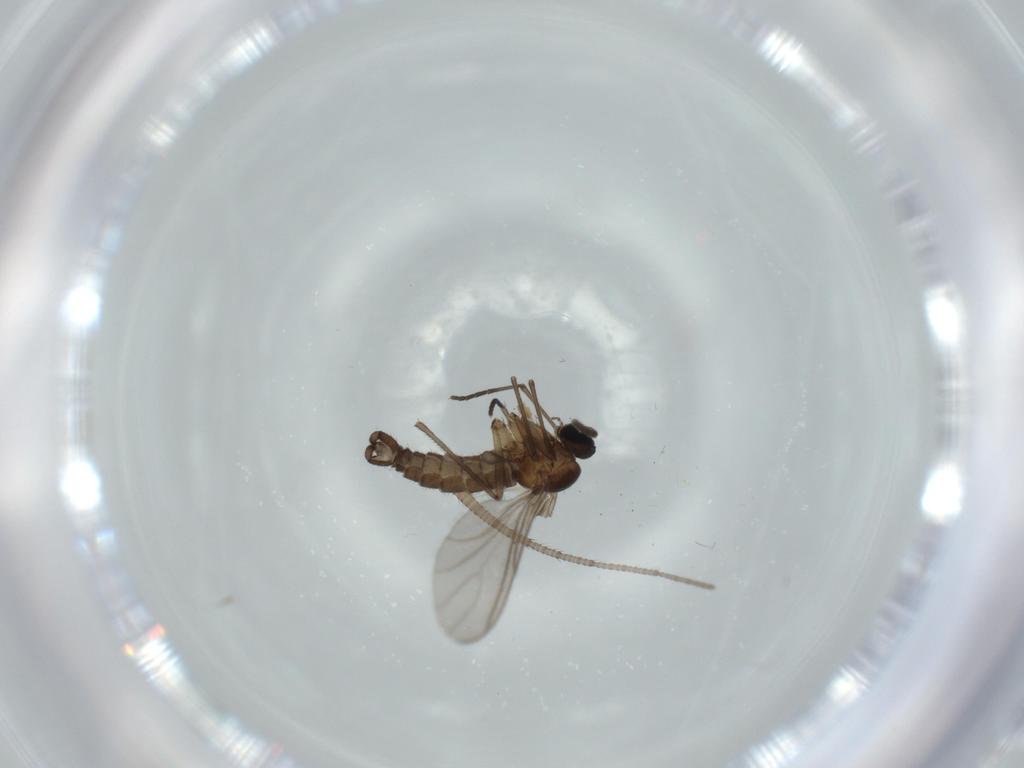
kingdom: Animalia
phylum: Arthropoda
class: Insecta
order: Diptera
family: Sciaridae
